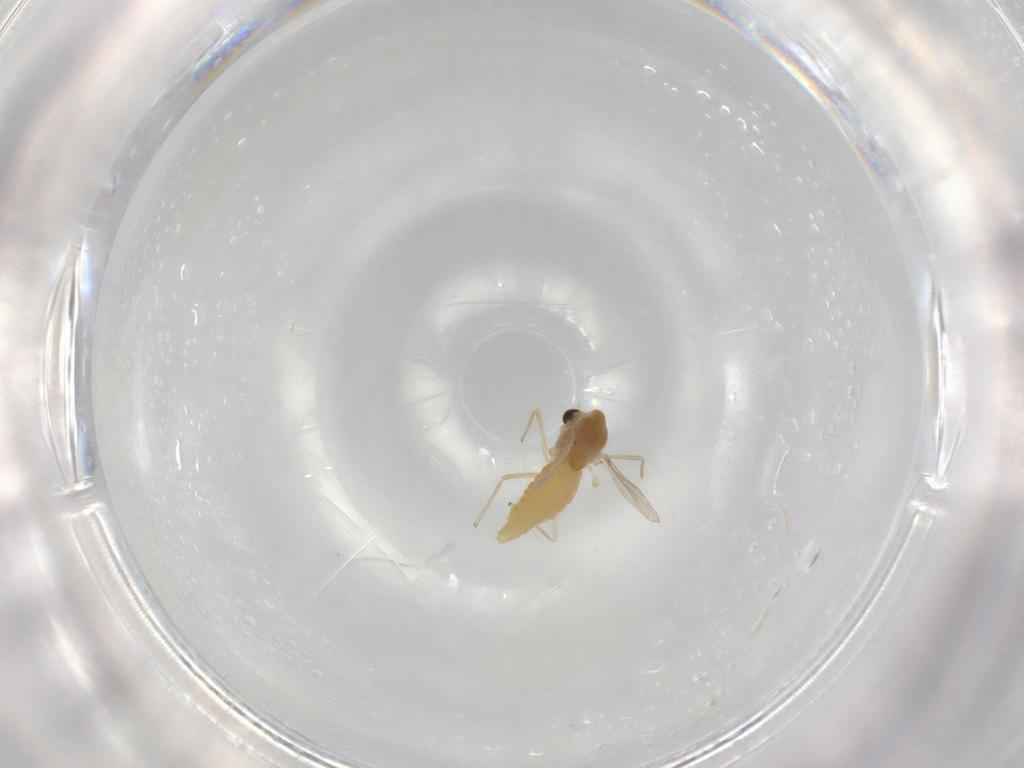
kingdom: Animalia
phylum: Arthropoda
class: Insecta
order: Diptera
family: Chironomidae
